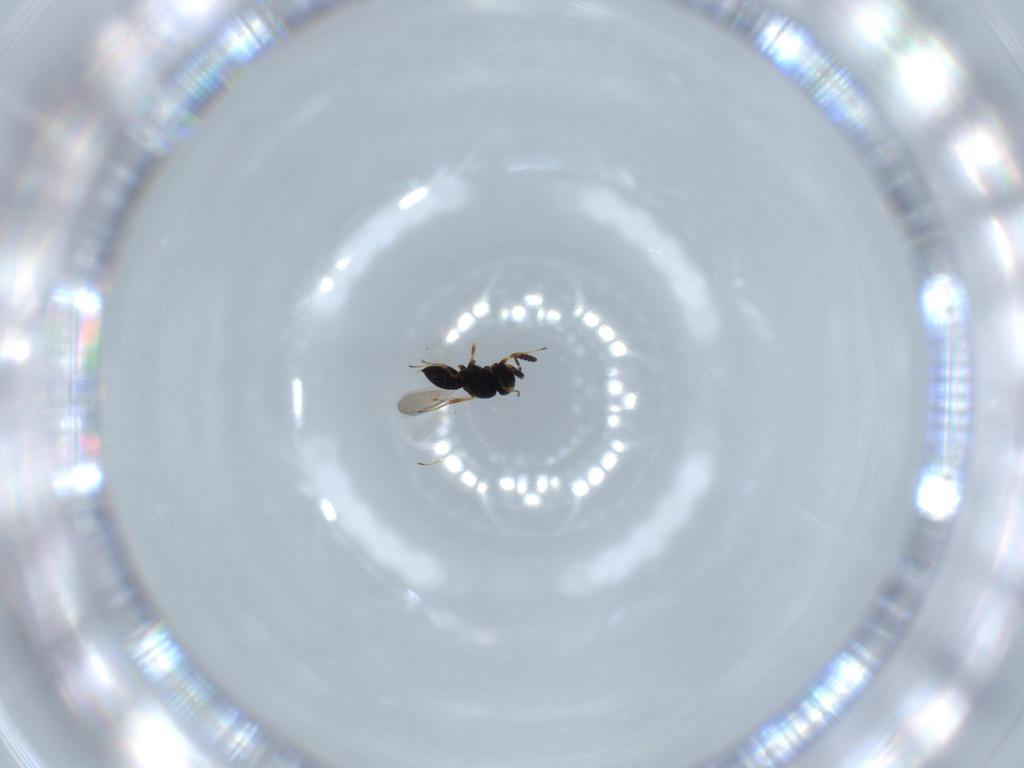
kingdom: Animalia
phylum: Arthropoda
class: Insecta
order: Hymenoptera
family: Scelionidae
